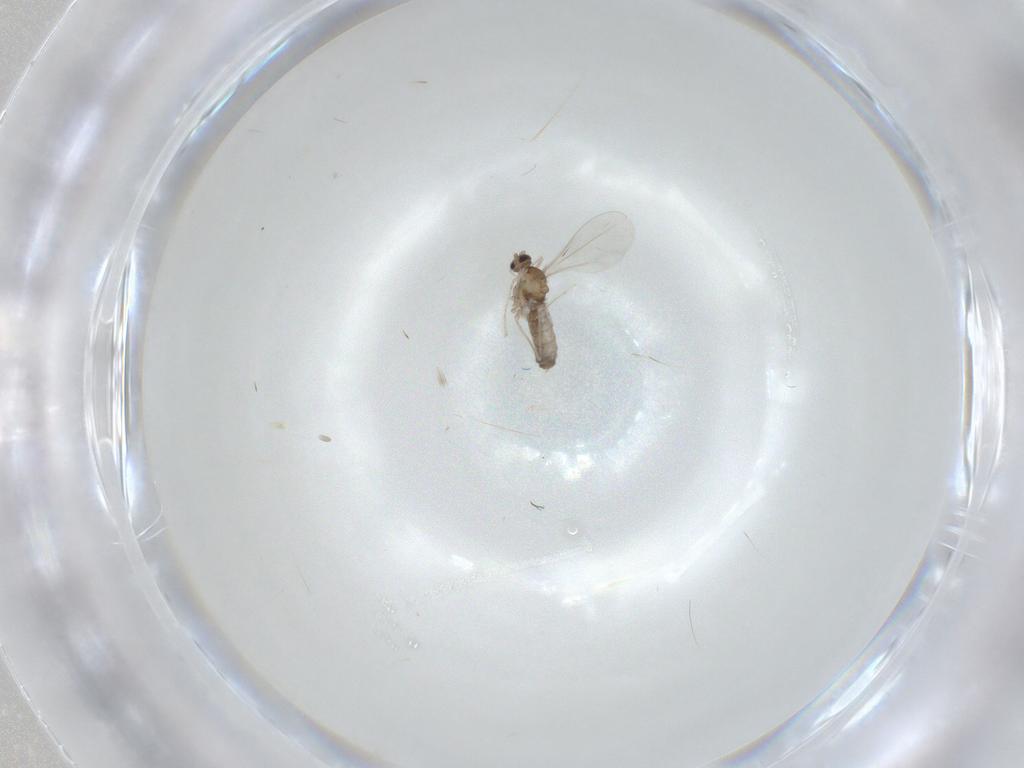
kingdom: Animalia
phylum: Arthropoda
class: Insecta
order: Diptera
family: Cecidomyiidae
